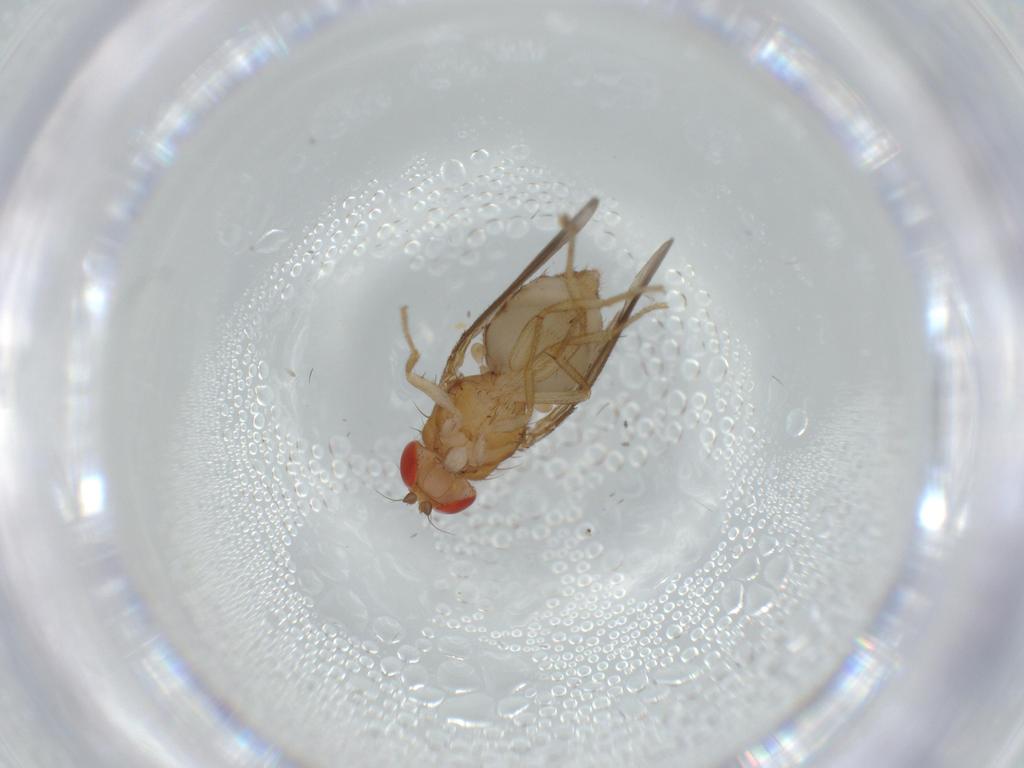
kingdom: Animalia
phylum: Arthropoda
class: Insecta
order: Diptera
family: Drosophilidae
